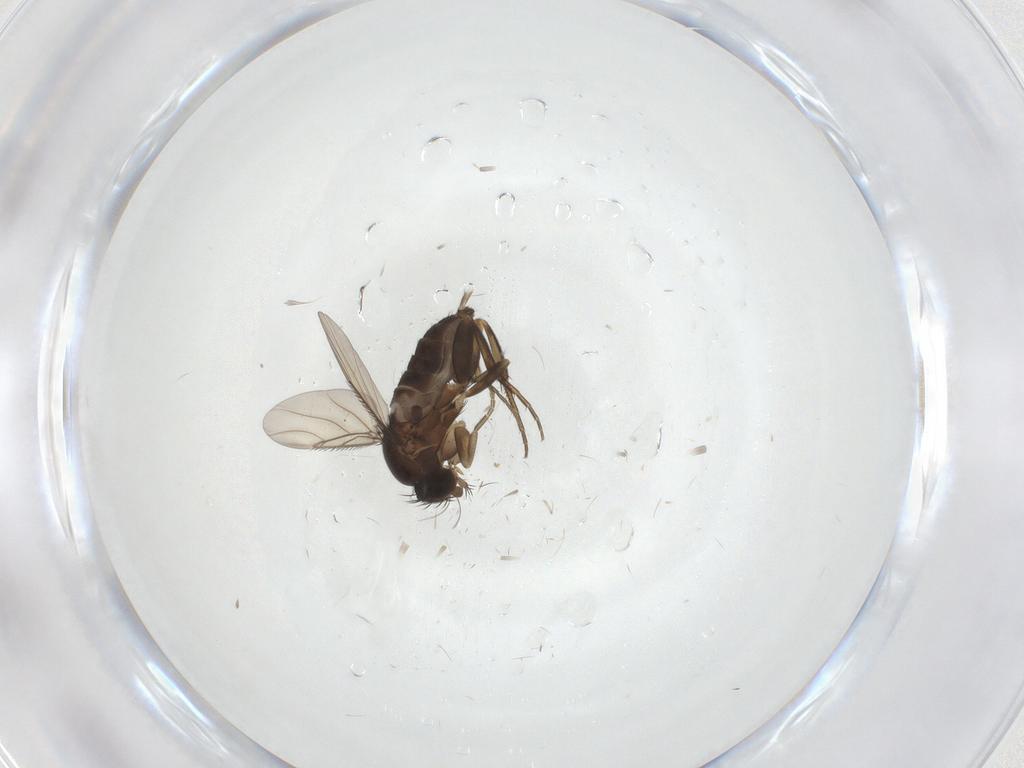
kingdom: Animalia
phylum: Arthropoda
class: Insecta
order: Diptera
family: Phoridae
